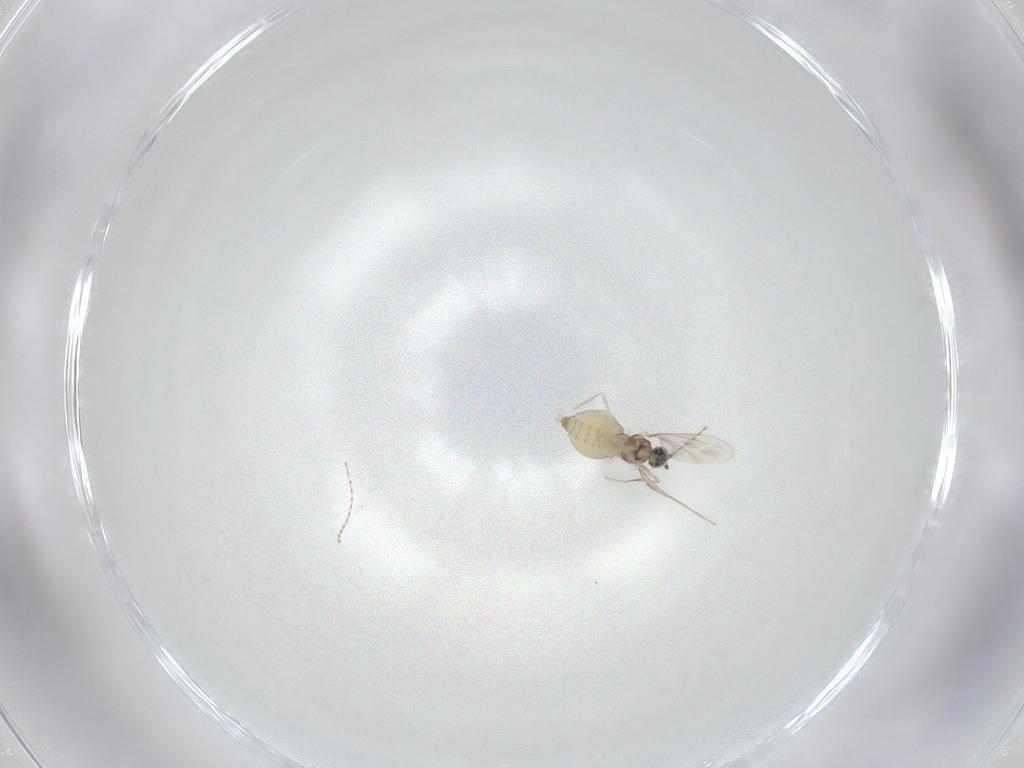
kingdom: Animalia
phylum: Arthropoda
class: Insecta
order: Diptera
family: Cecidomyiidae
